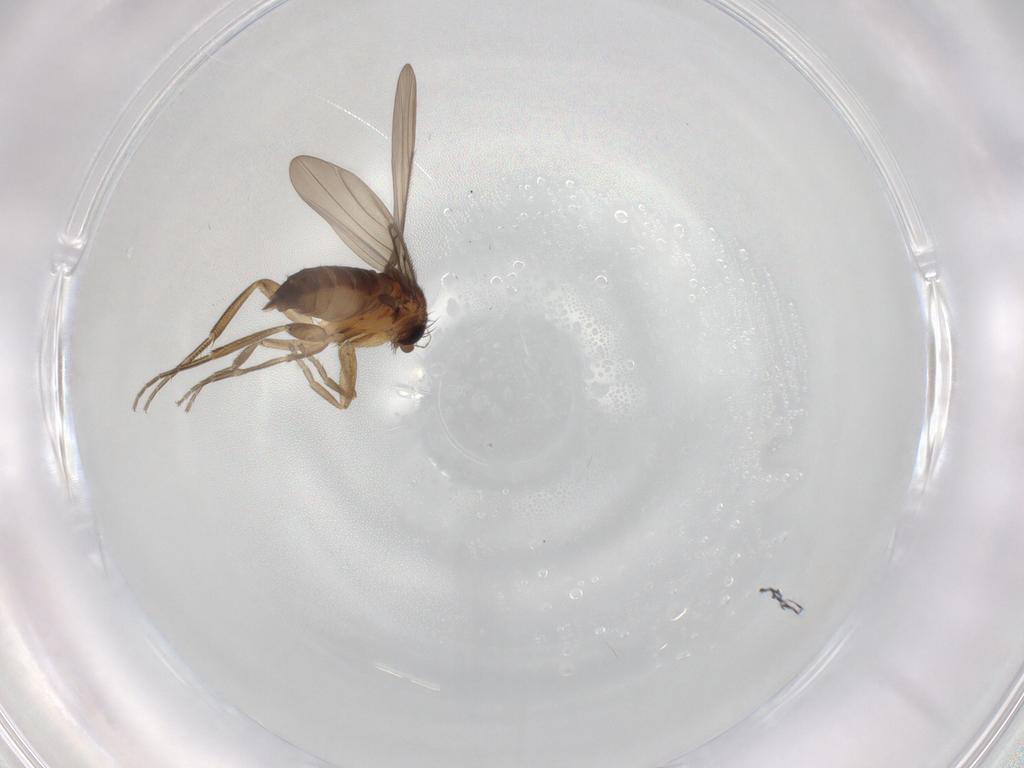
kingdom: Animalia
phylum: Arthropoda
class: Insecta
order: Diptera
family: Phoridae
